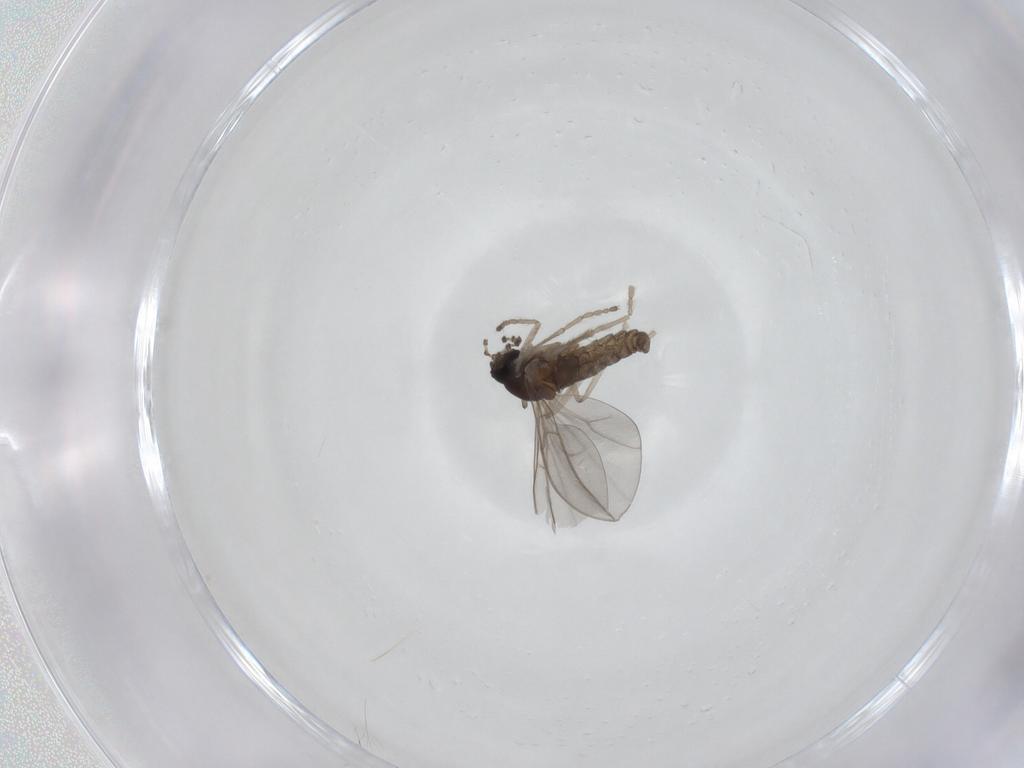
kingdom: Animalia
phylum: Arthropoda
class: Insecta
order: Diptera
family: Cecidomyiidae
